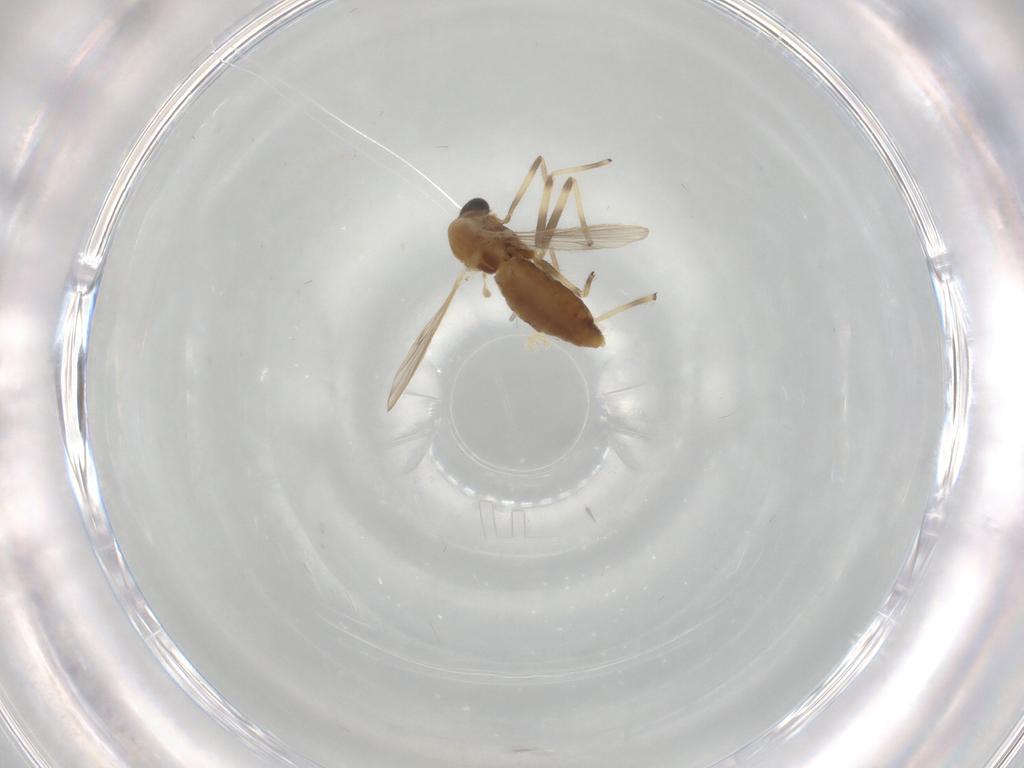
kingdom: Animalia
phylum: Arthropoda
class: Insecta
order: Diptera
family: Chironomidae
